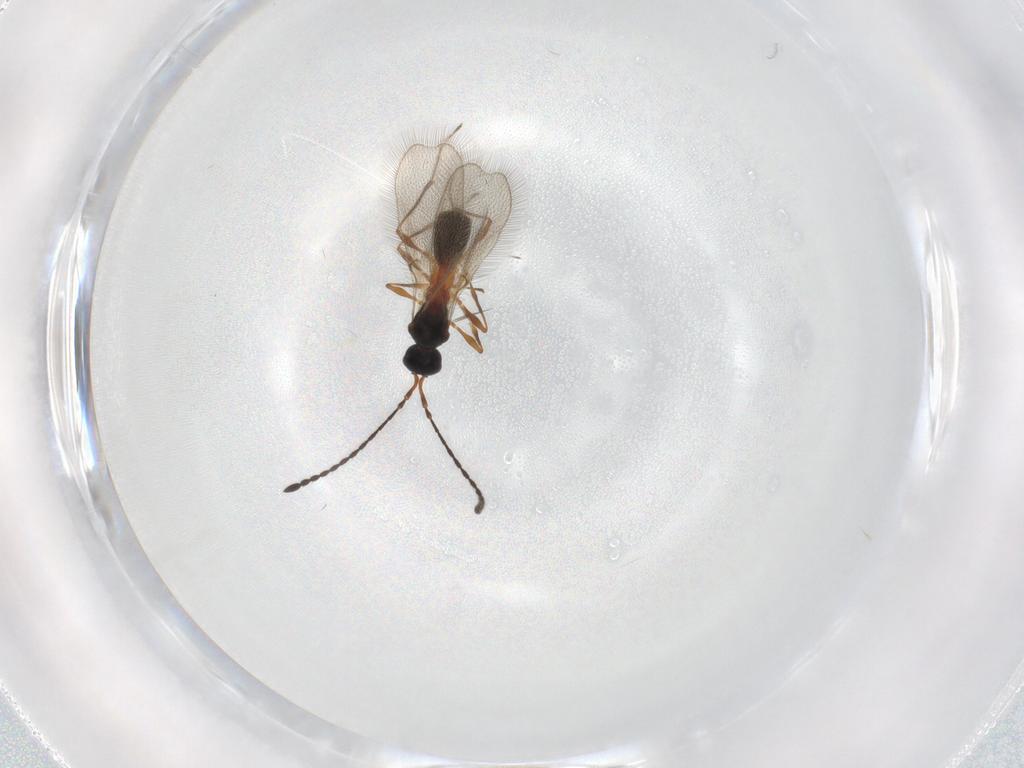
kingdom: Animalia
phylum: Arthropoda
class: Insecta
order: Hymenoptera
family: Diapriidae
